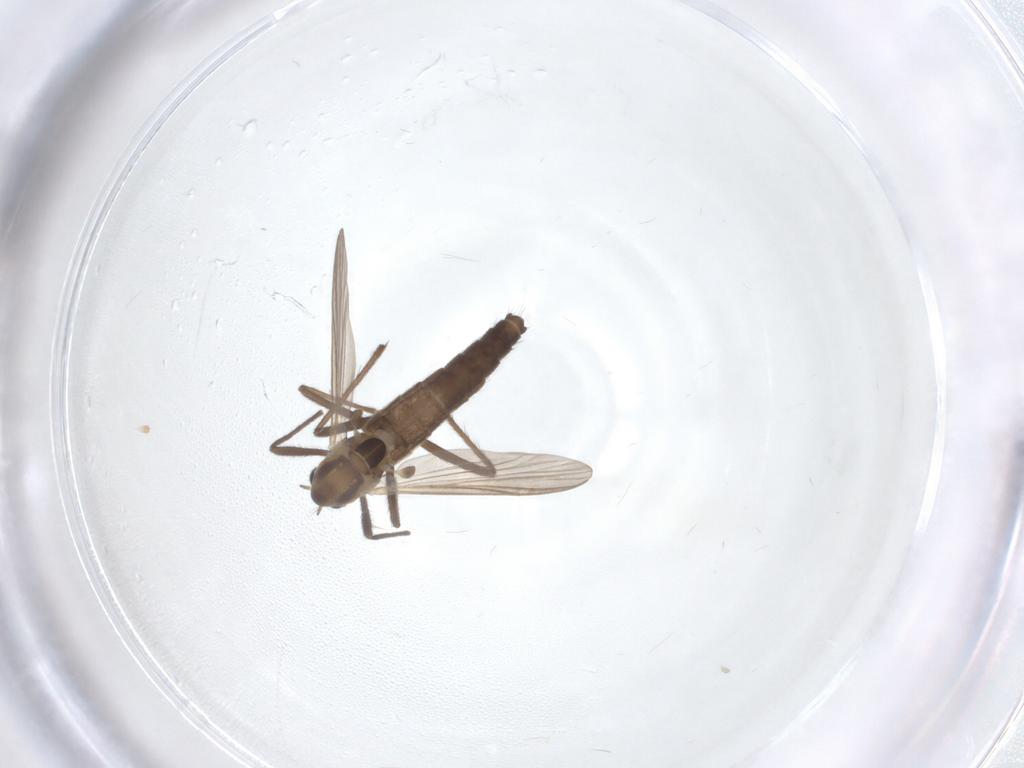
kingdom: Animalia
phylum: Arthropoda
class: Insecta
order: Diptera
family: Chironomidae
